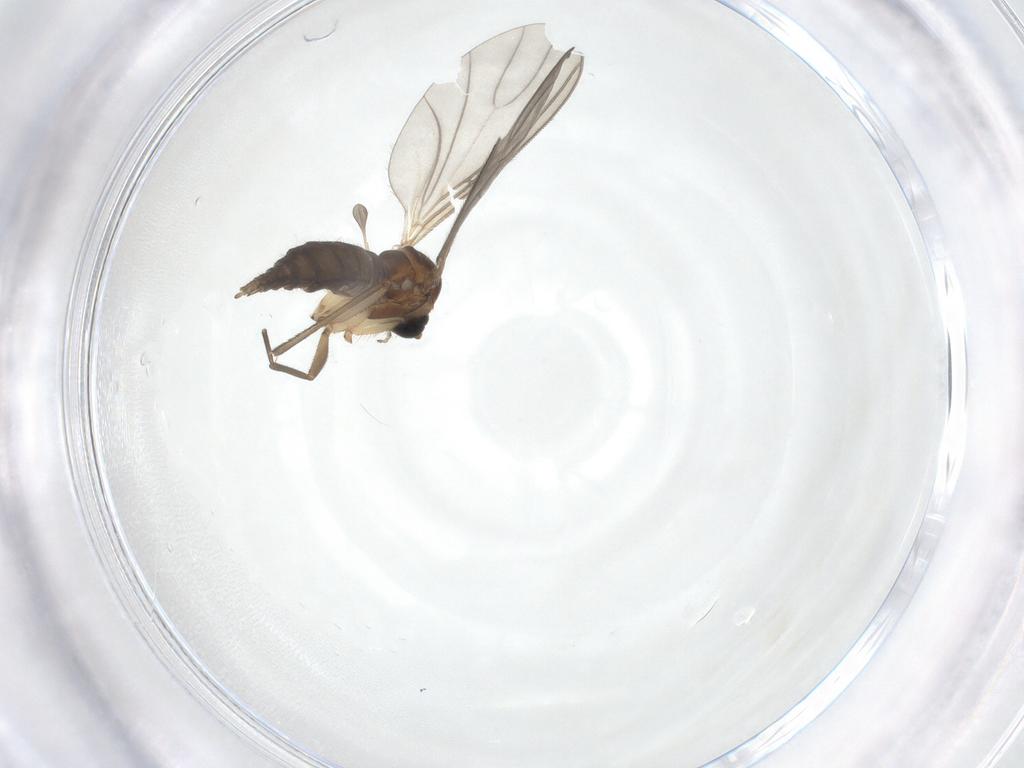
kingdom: Animalia
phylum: Arthropoda
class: Insecta
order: Diptera
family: Sciaridae
